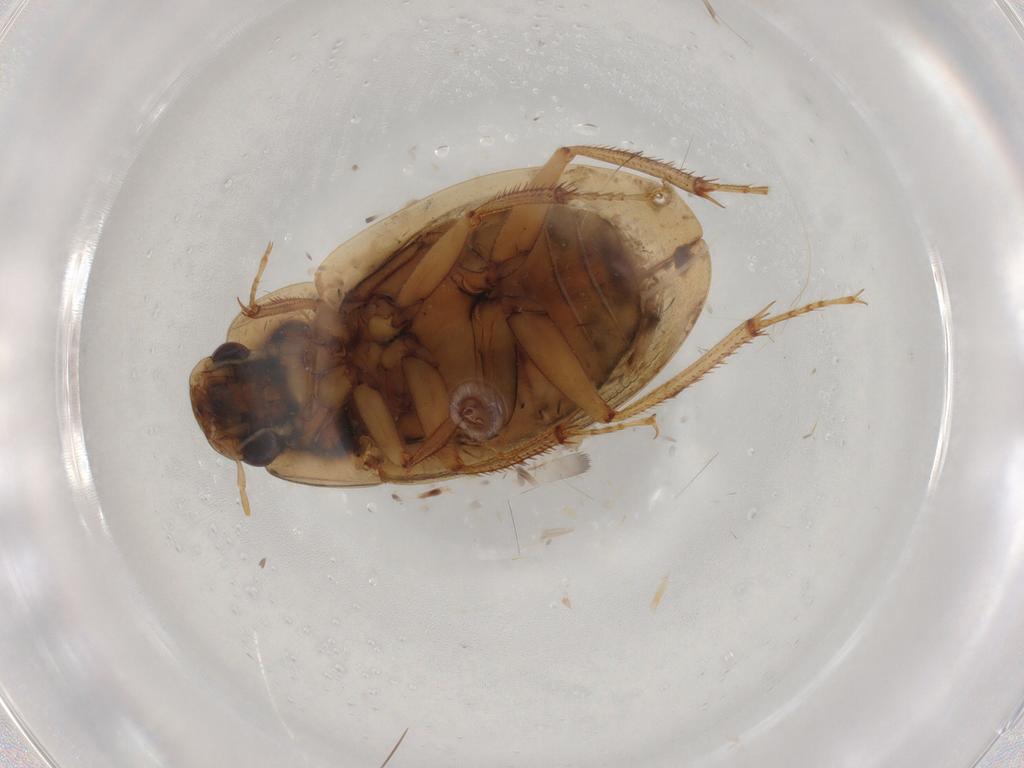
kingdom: Animalia
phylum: Arthropoda
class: Insecta
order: Coleoptera
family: Hydrophilidae
